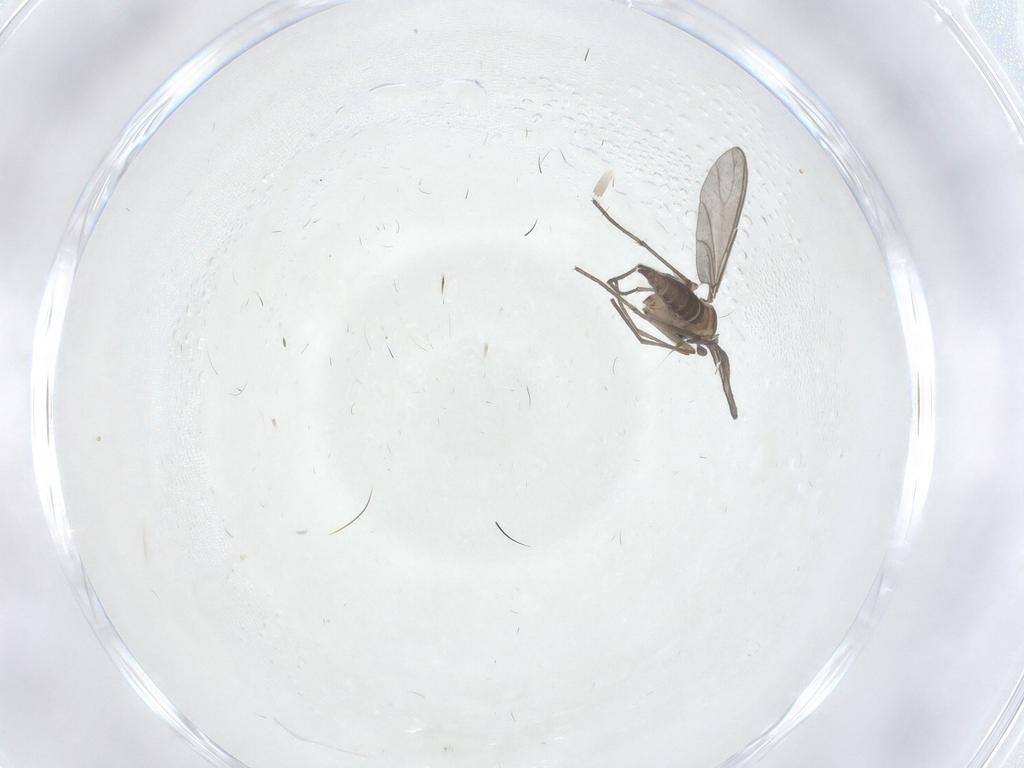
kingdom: Animalia
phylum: Arthropoda
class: Insecta
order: Diptera
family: Sciaridae
